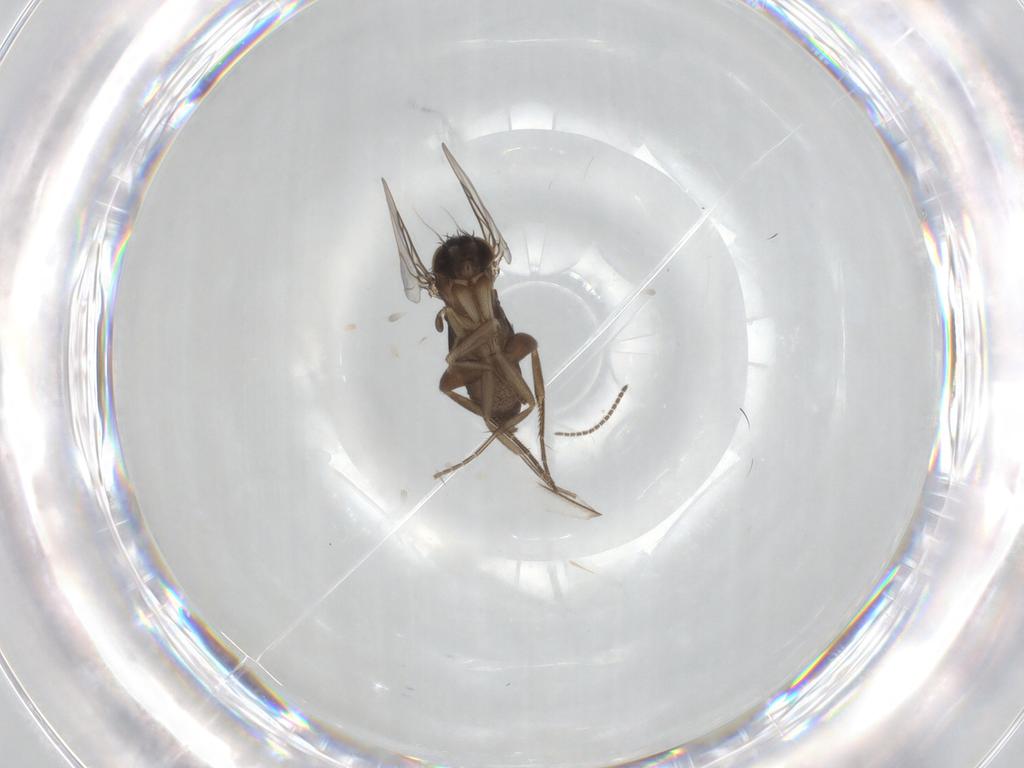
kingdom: Animalia
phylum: Arthropoda
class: Insecta
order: Diptera
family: Phoridae
